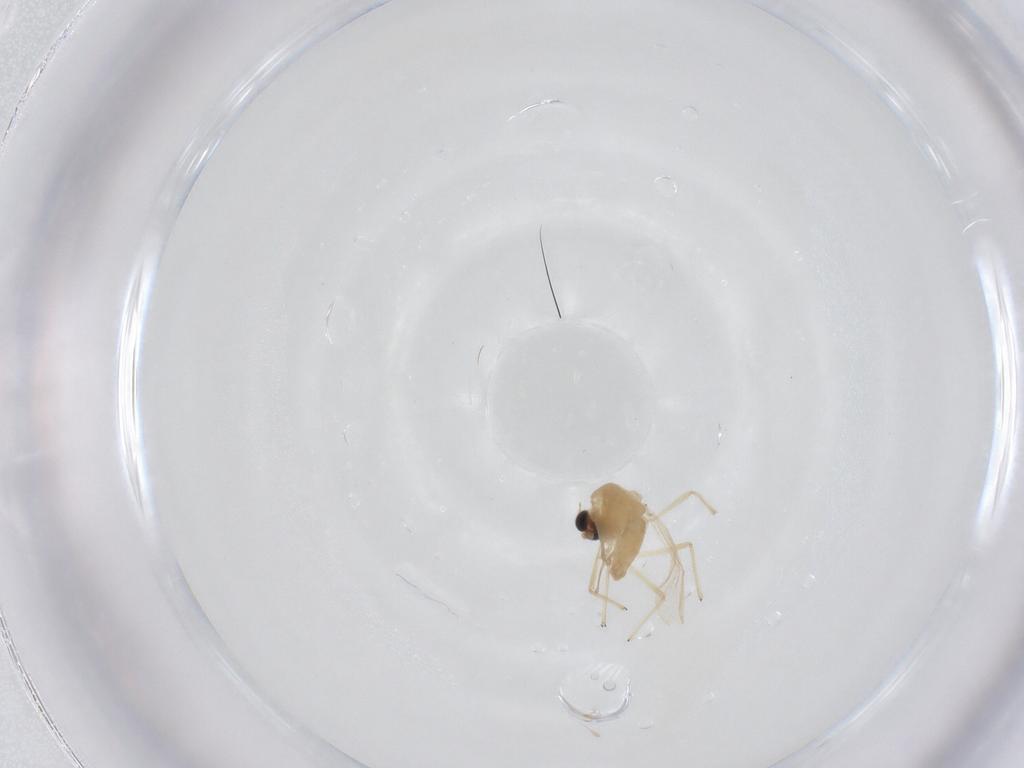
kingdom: Animalia
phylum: Arthropoda
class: Insecta
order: Diptera
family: Chironomidae
